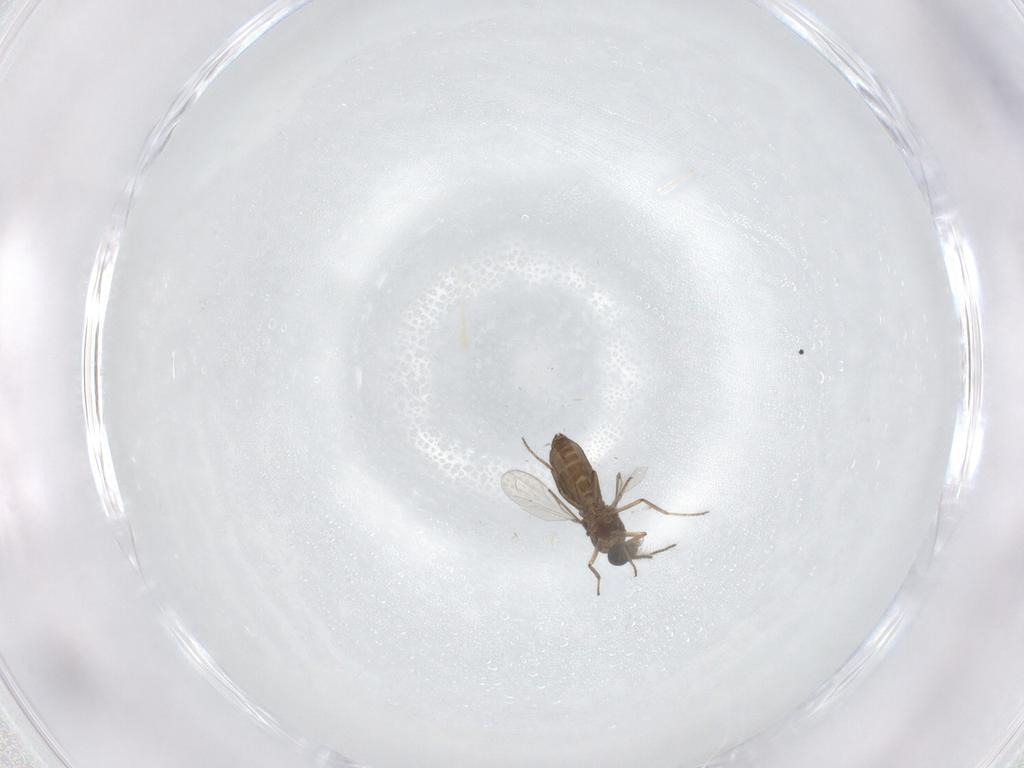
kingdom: Animalia
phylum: Arthropoda
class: Insecta
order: Diptera
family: Ceratopogonidae
